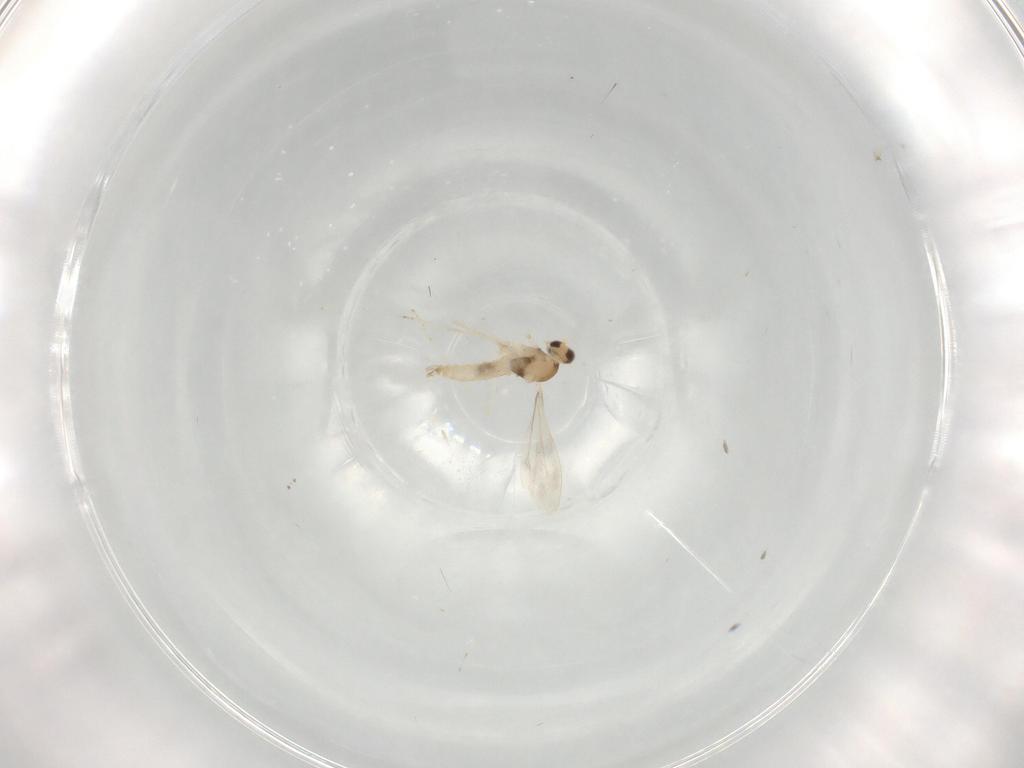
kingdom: Animalia
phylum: Arthropoda
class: Insecta
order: Diptera
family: Cecidomyiidae
